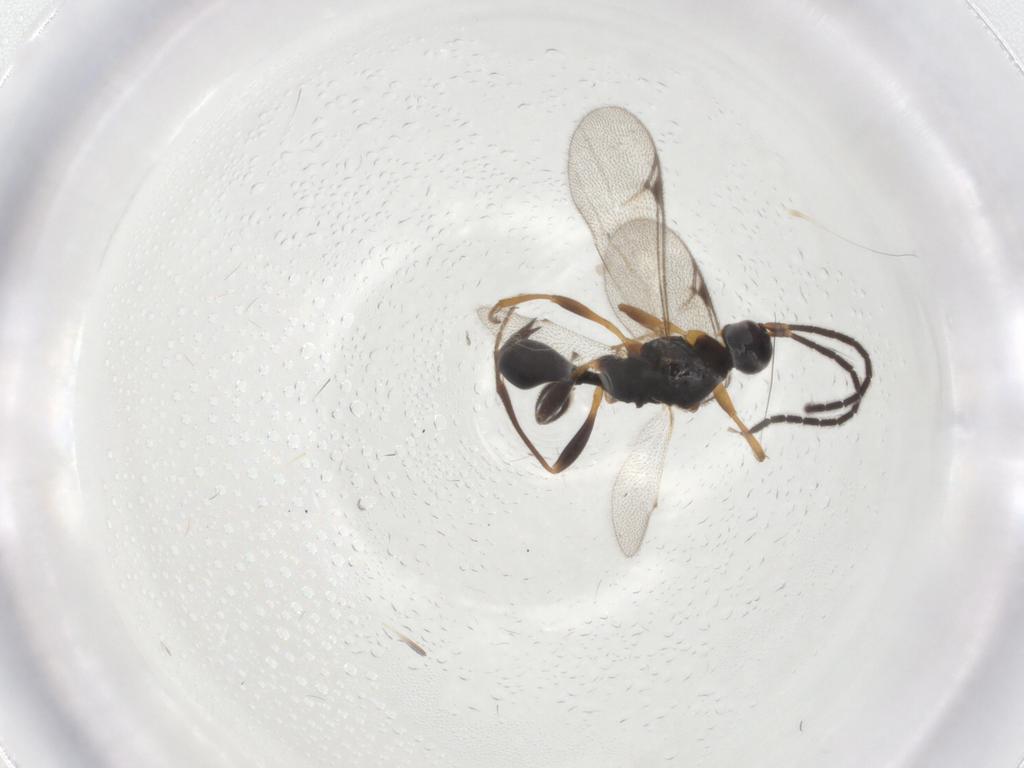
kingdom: Animalia
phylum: Arthropoda
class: Insecta
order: Hymenoptera
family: Proctotrupidae
